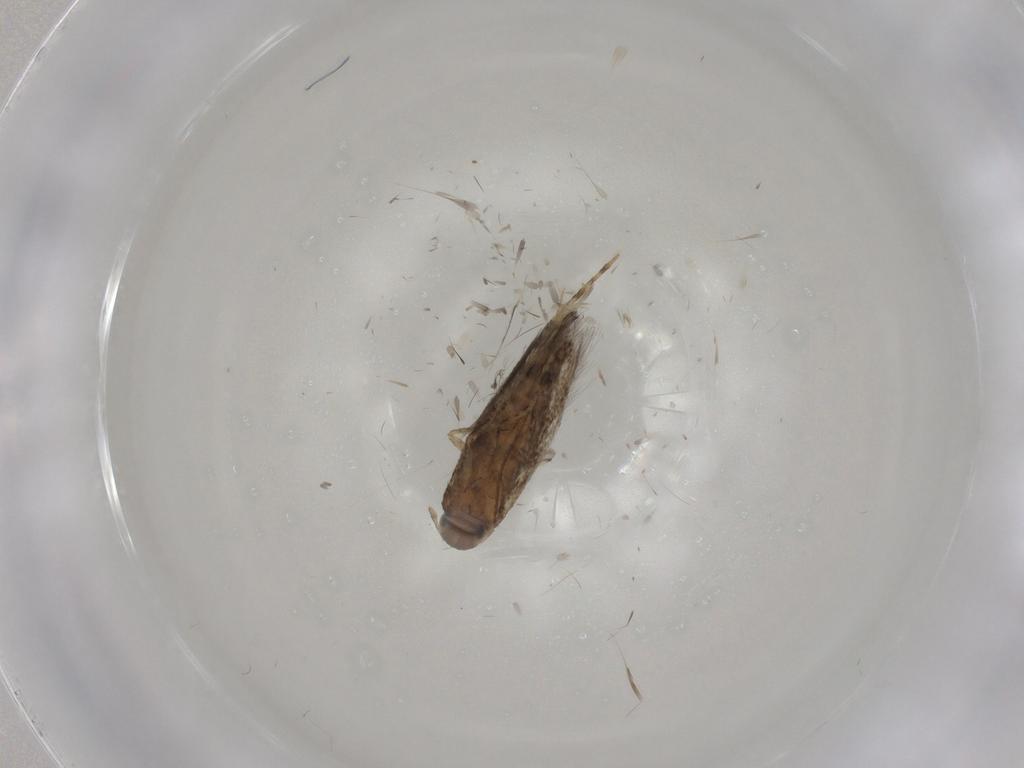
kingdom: Animalia
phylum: Arthropoda
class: Insecta
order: Lepidoptera
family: Erebidae
